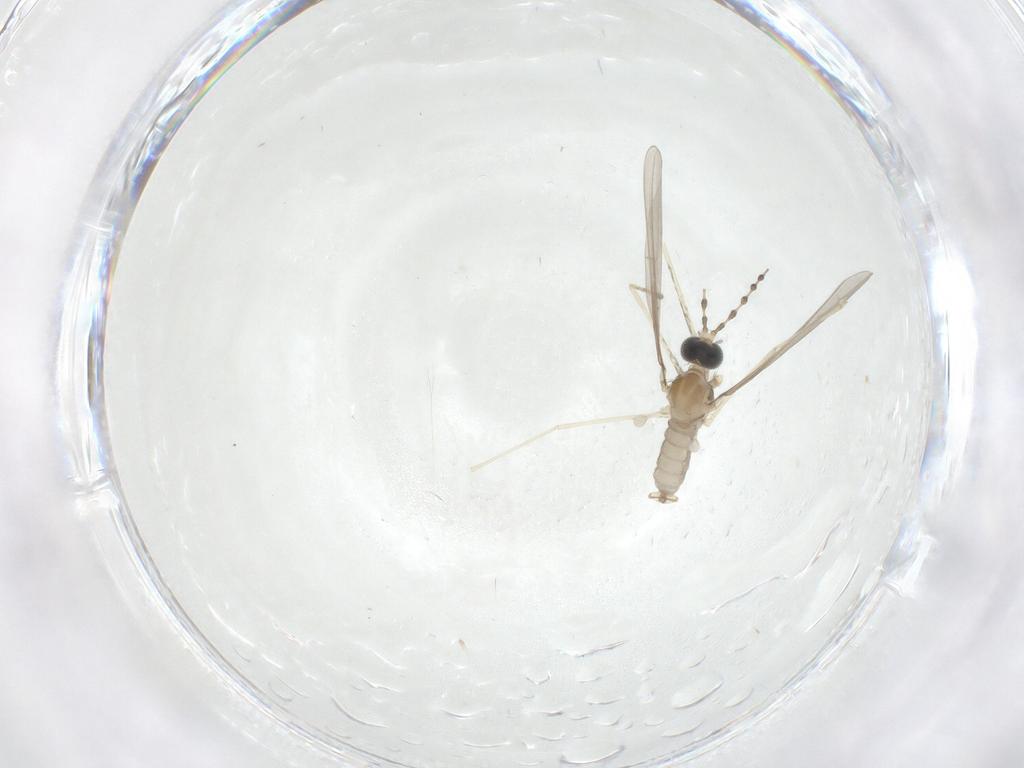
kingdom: Animalia
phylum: Arthropoda
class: Insecta
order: Diptera
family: Cecidomyiidae
